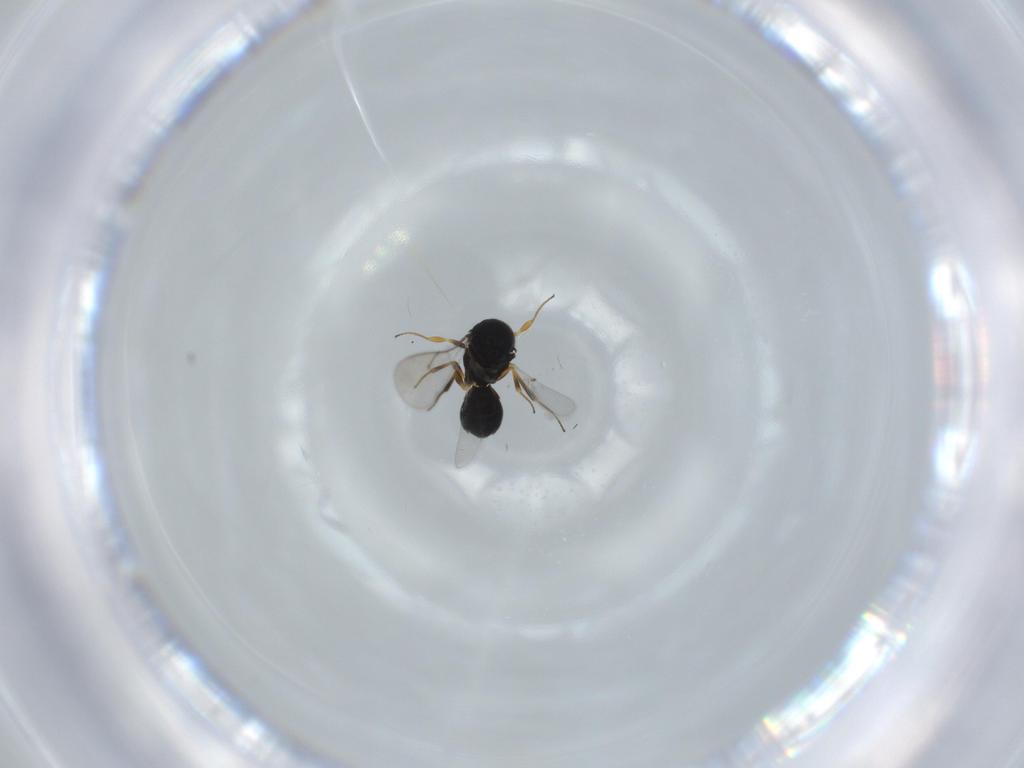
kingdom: Animalia
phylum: Arthropoda
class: Insecta
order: Hymenoptera
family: Scelionidae
